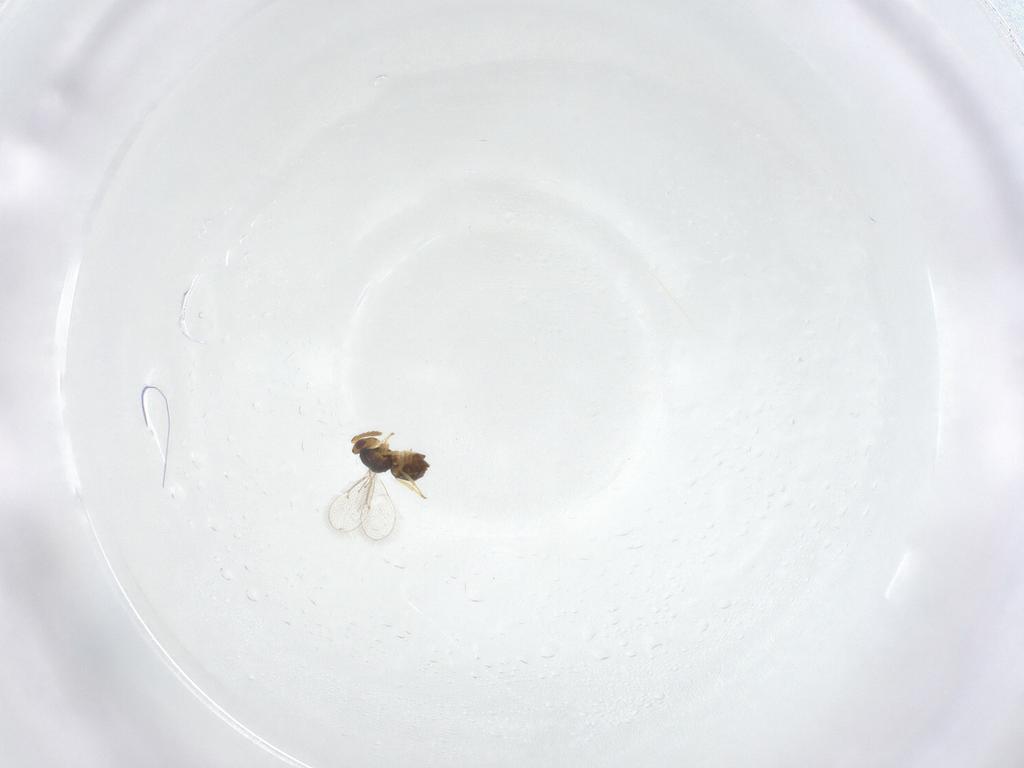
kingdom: Animalia
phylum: Arthropoda
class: Insecta
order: Hymenoptera
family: Eulophidae
